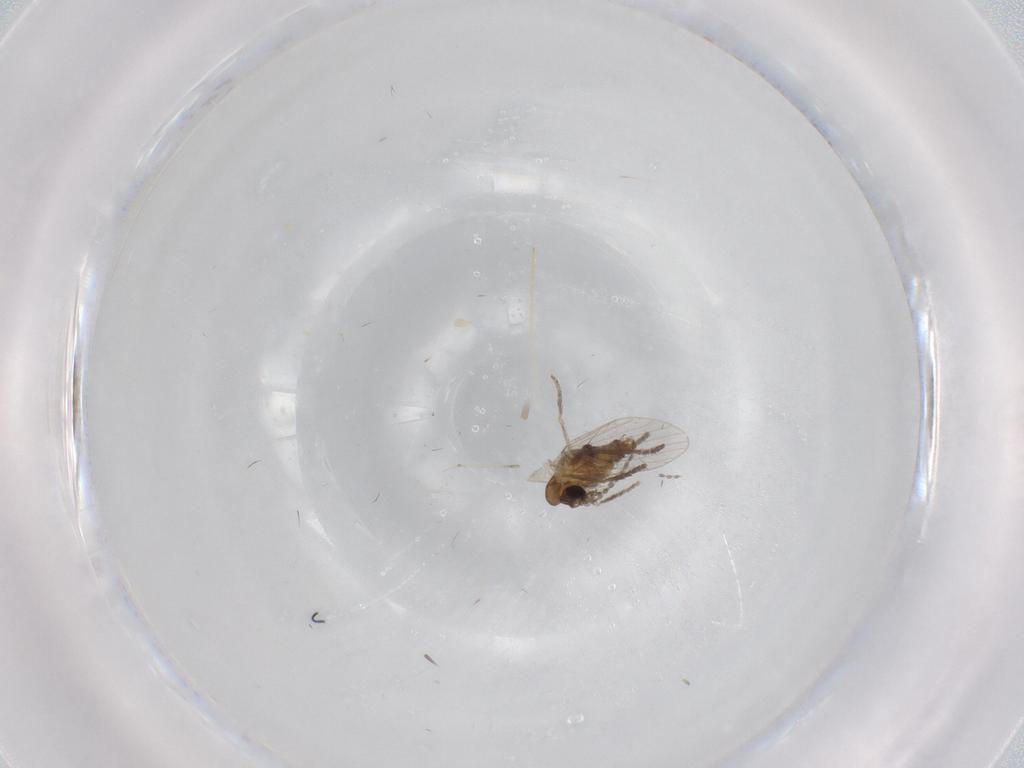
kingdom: Animalia
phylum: Arthropoda
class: Insecta
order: Diptera
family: Cecidomyiidae
